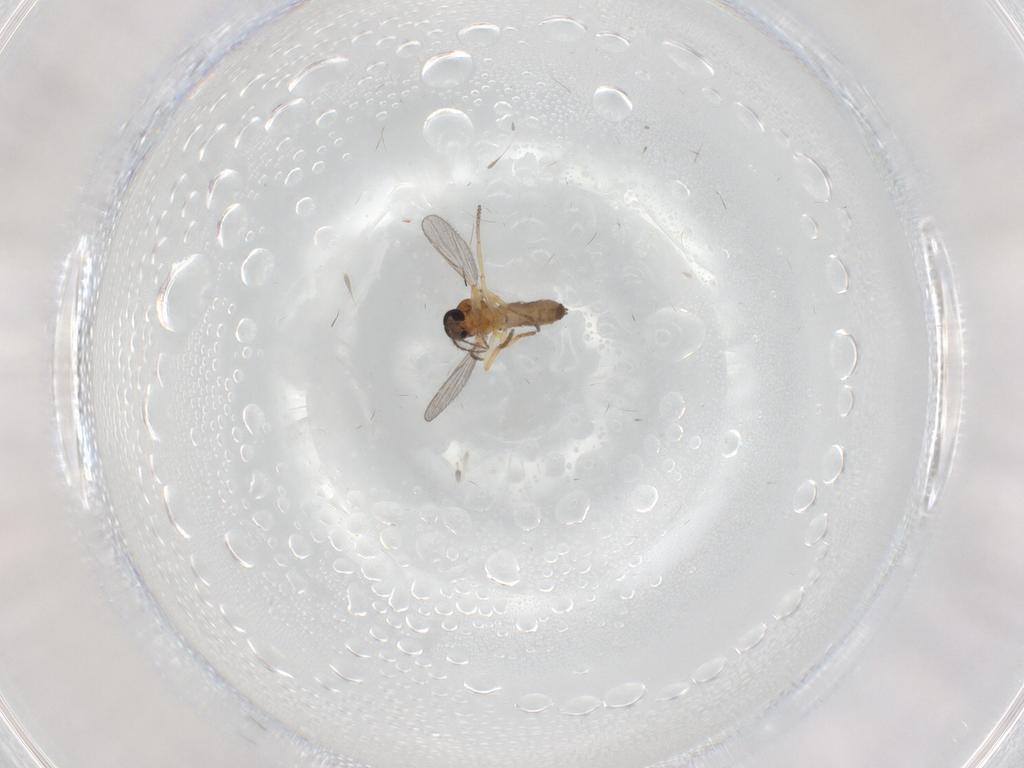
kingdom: Animalia
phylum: Arthropoda
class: Insecta
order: Diptera
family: Ceratopogonidae
